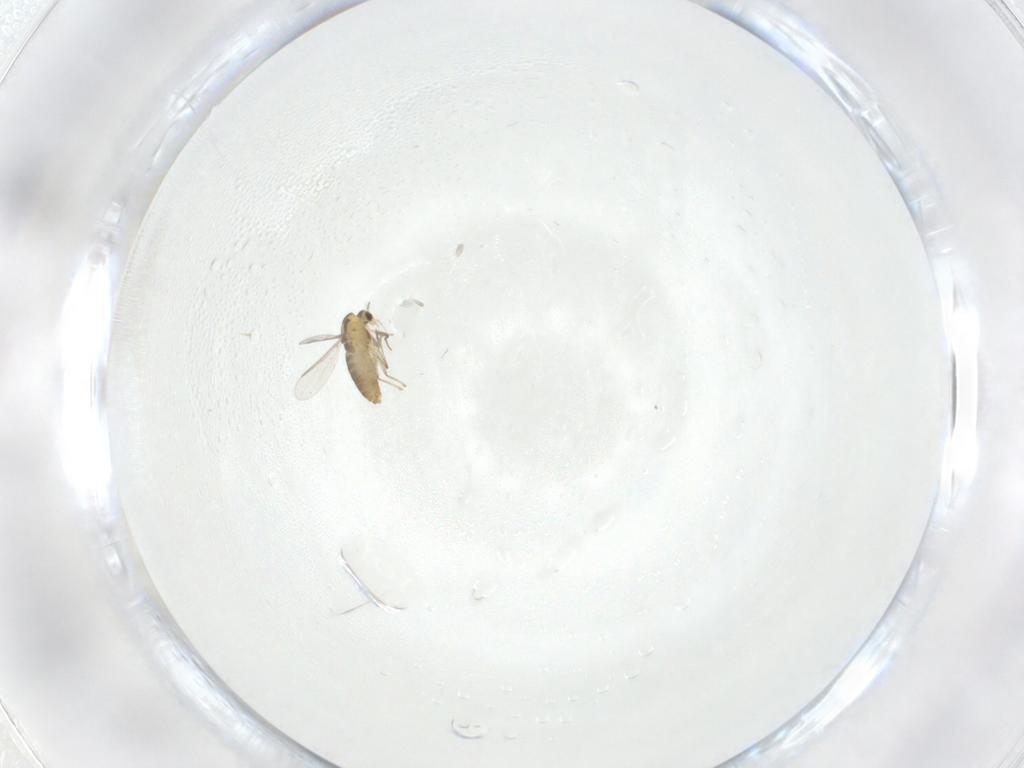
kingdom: Animalia
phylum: Arthropoda
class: Insecta
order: Diptera
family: Chironomidae
